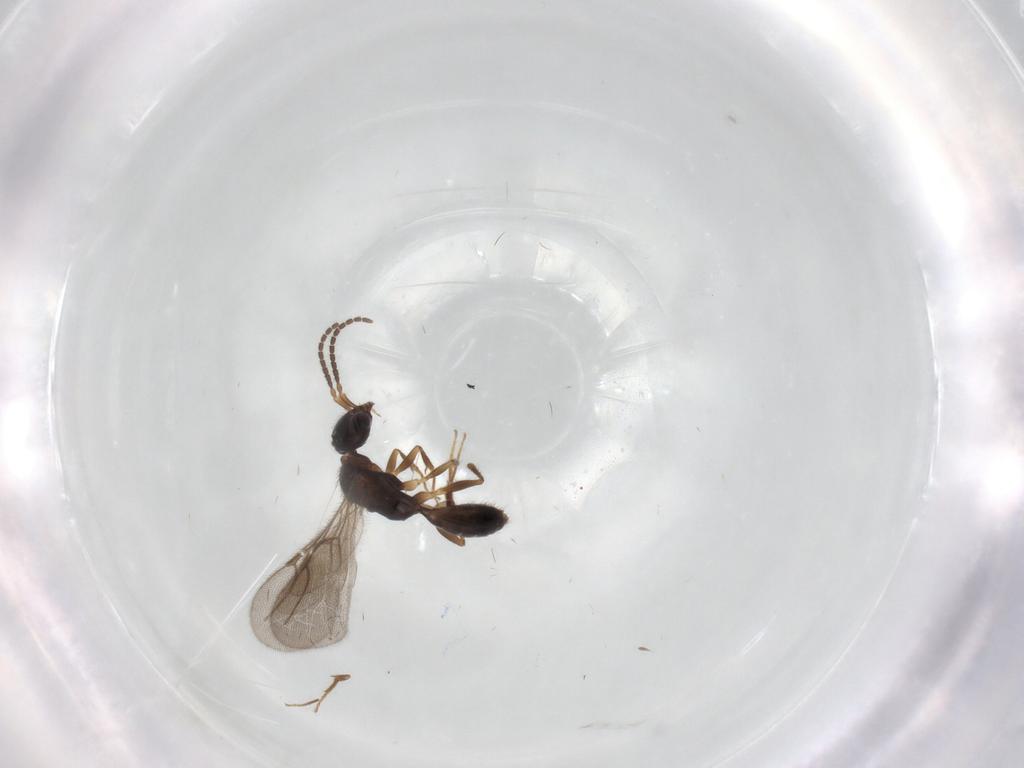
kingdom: Animalia
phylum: Arthropoda
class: Insecta
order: Hymenoptera
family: Bethylidae
